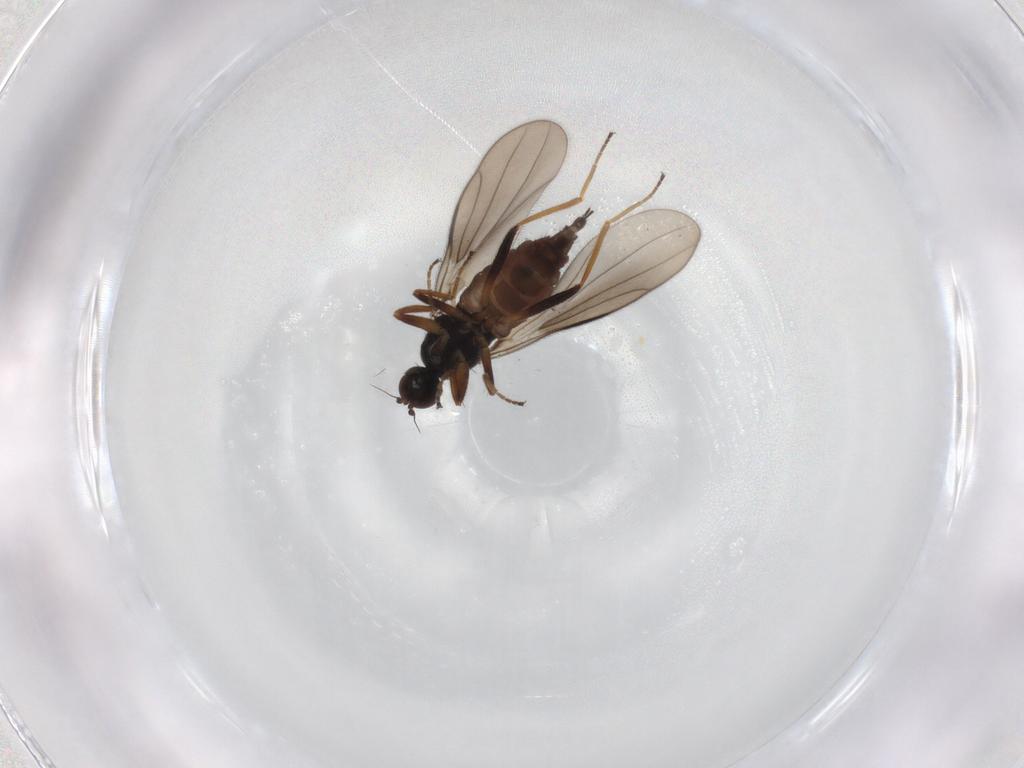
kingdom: Animalia
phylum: Arthropoda
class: Insecta
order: Diptera
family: Hybotidae
